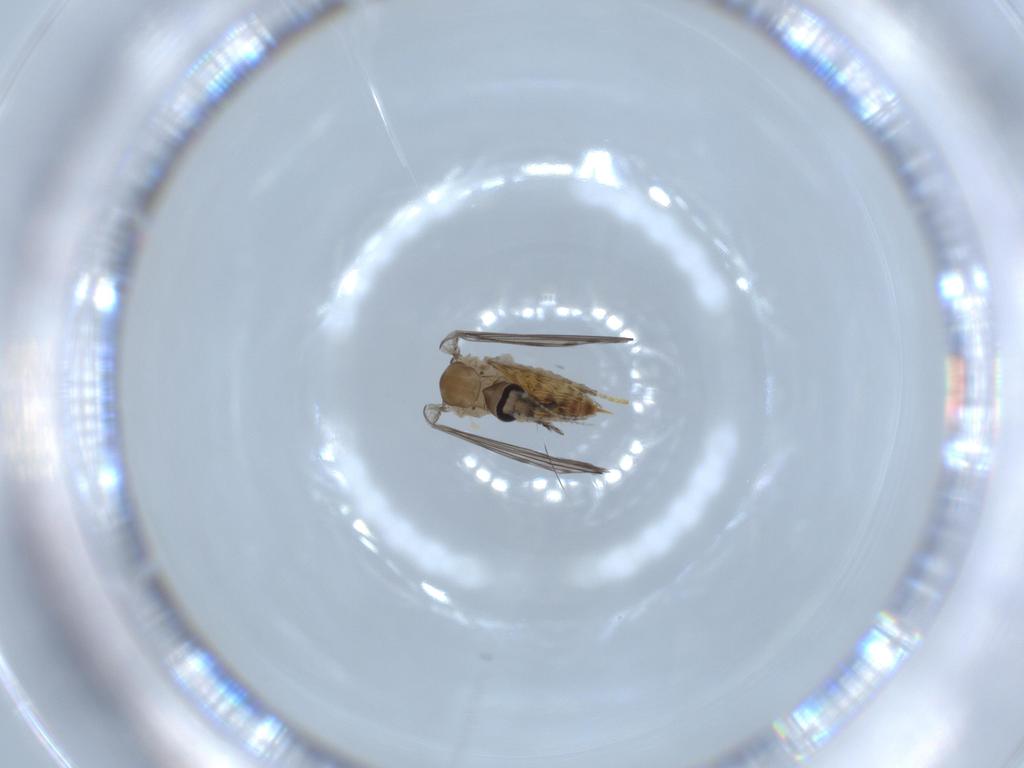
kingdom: Animalia
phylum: Arthropoda
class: Insecta
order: Diptera
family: Psychodidae
